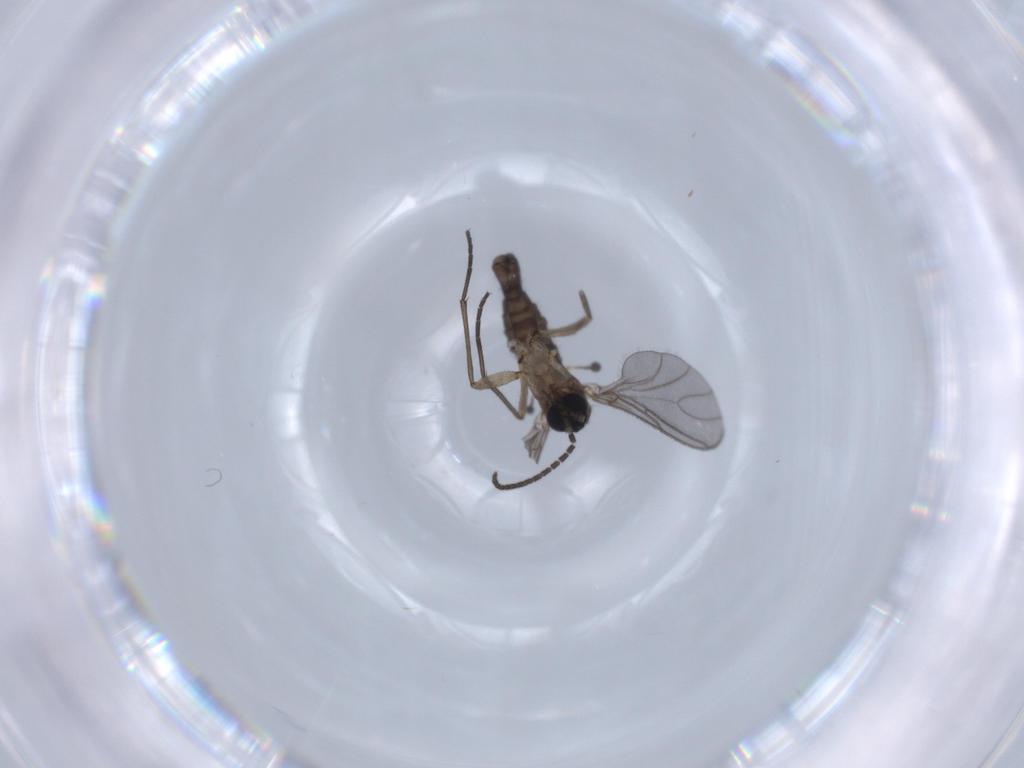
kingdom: Animalia
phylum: Arthropoda
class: Insecta
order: Diptera
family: Sciaridae
